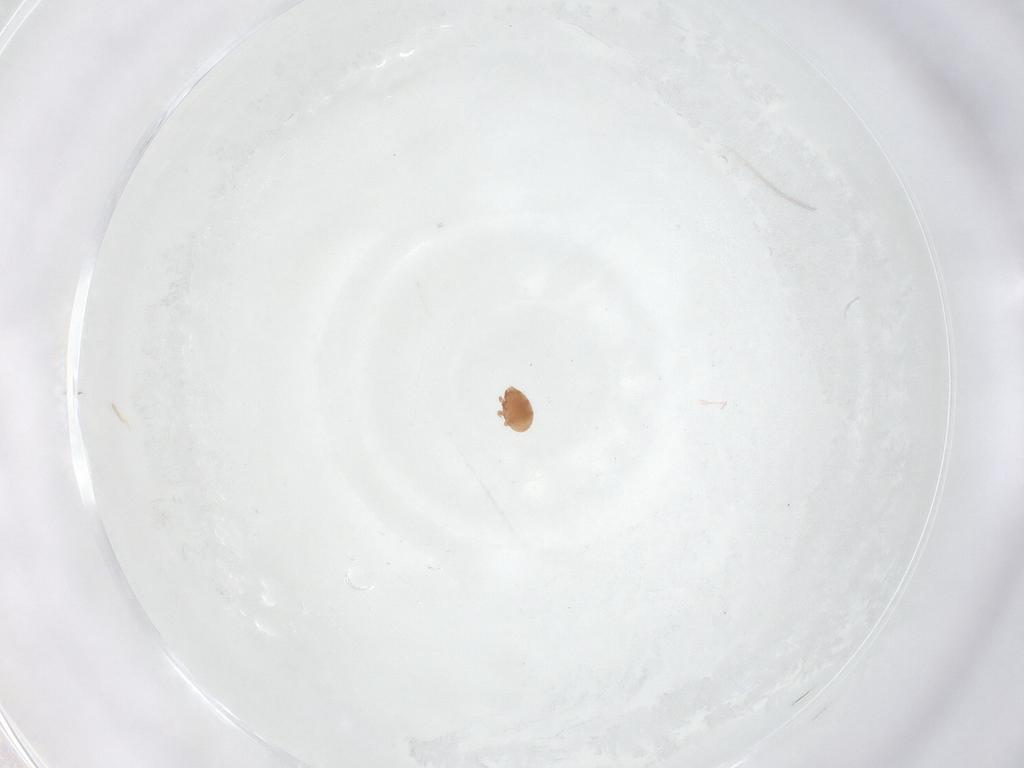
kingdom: Animalia
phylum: Arthropoda
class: Arachnida
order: Mesostigmata
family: Trematuridae
